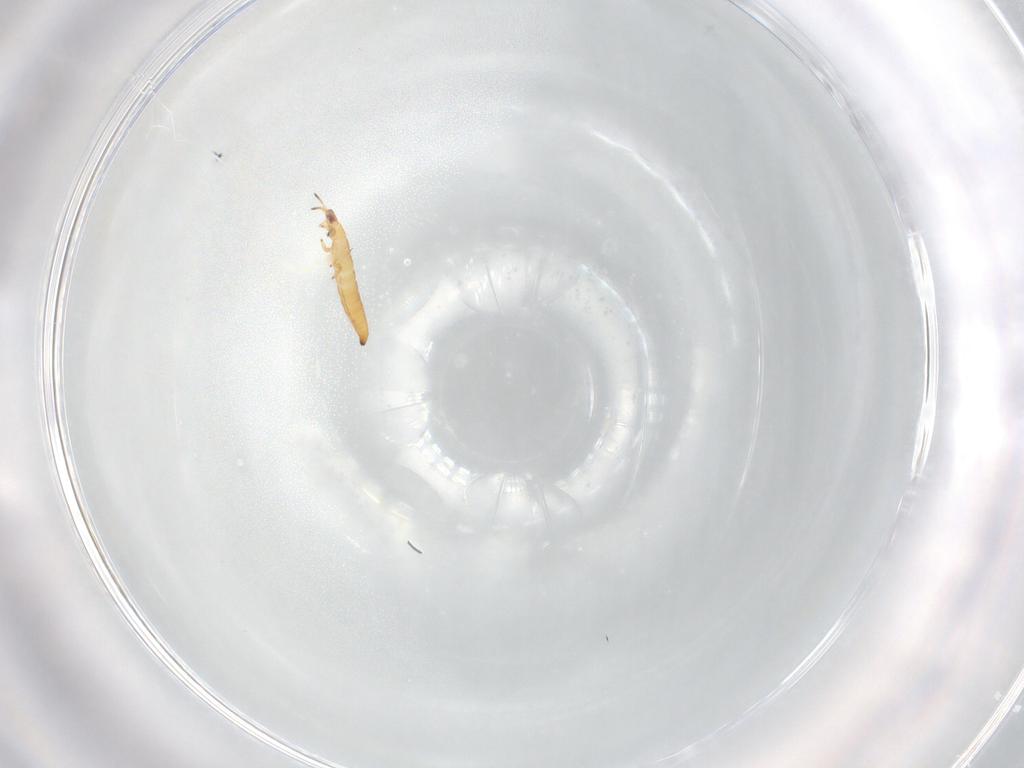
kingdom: Animalia
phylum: Arthropoda
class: Insecta
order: Thysanoptera
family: Thripidae
